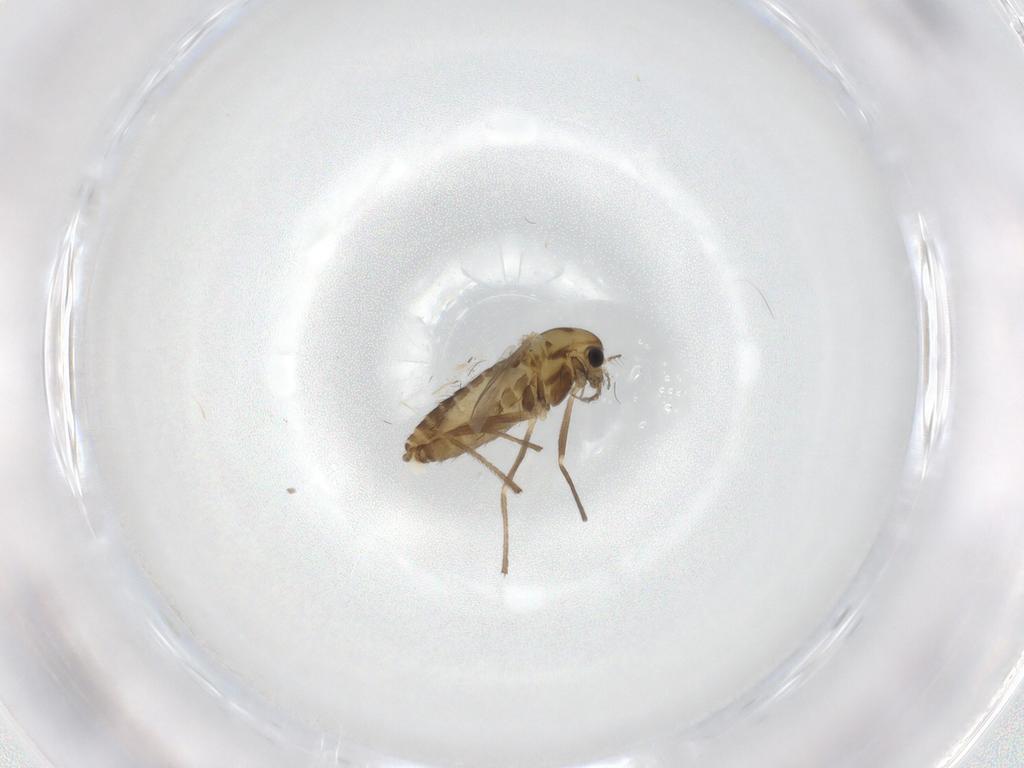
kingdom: Animalia
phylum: Arthropoda
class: Insecta
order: Diptera
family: Chironomidae
